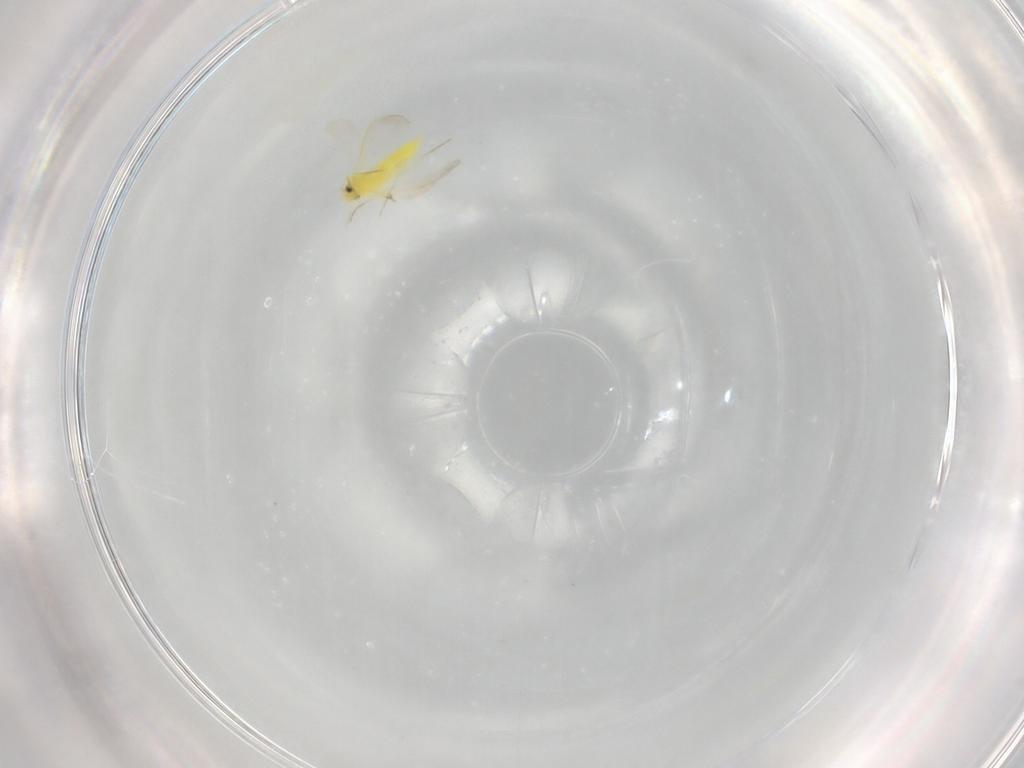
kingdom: Animalia
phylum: Arthropoda
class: Insecta
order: Hemiptera
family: Aleyrodidae
